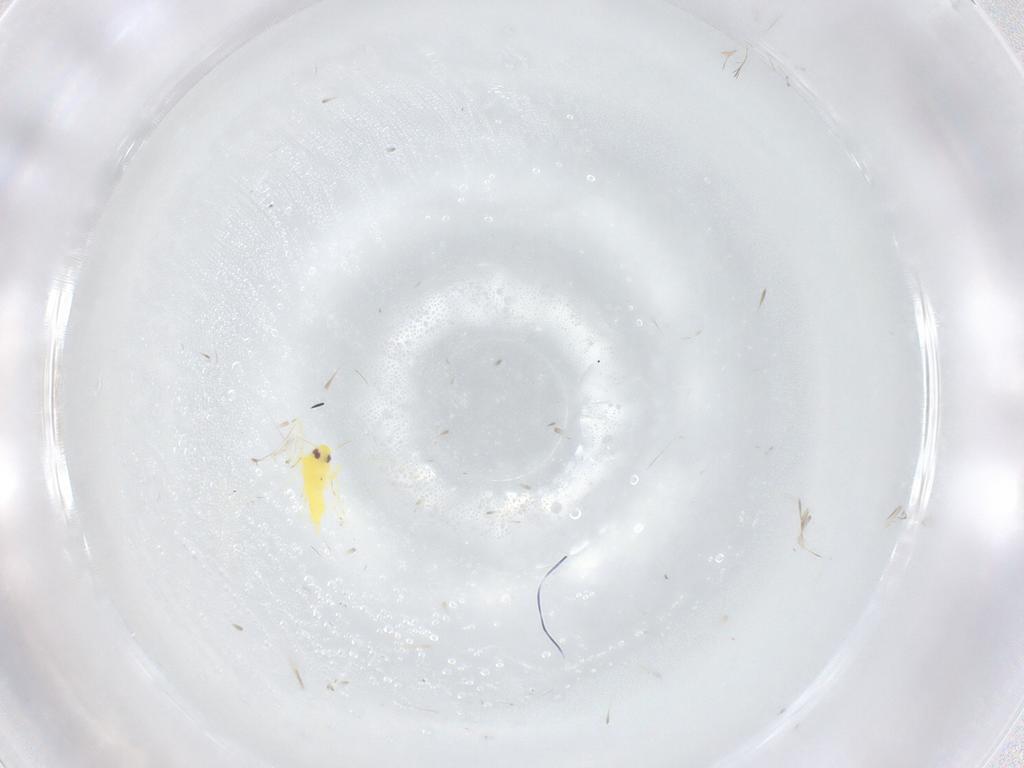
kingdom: Animalia
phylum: Arthropoda
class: Insecta
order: Hemiptera
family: Aleyrodidae
